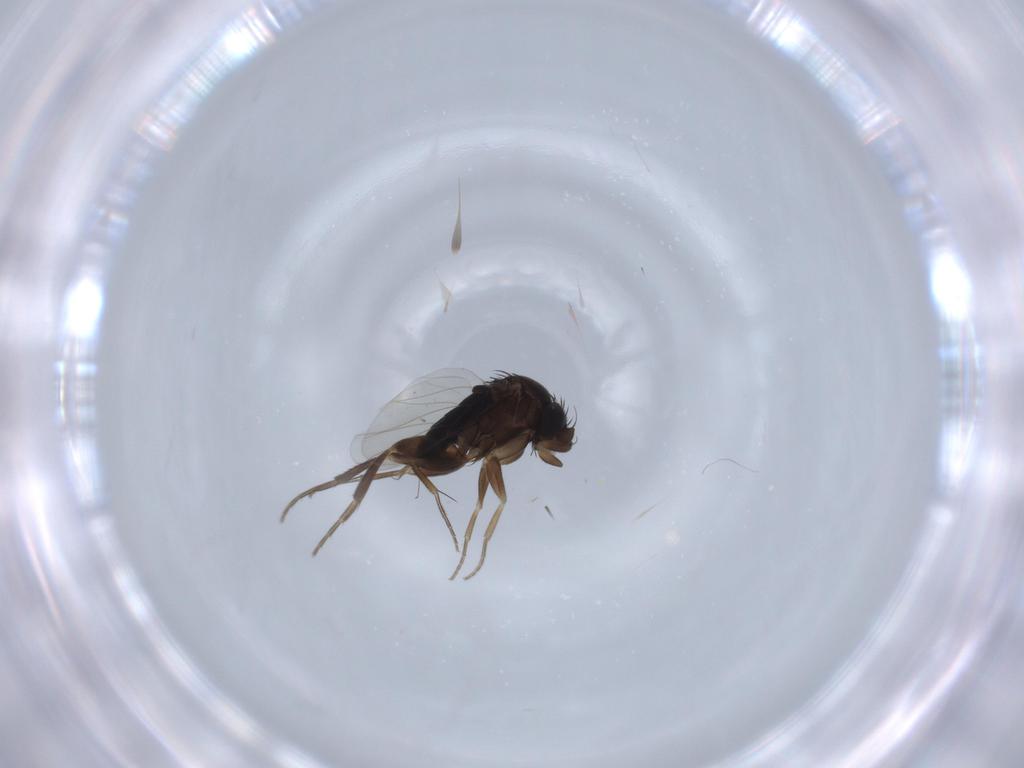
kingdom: Animalia
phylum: Arthropoda
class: Insecta
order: Diptera
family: Phoridae
